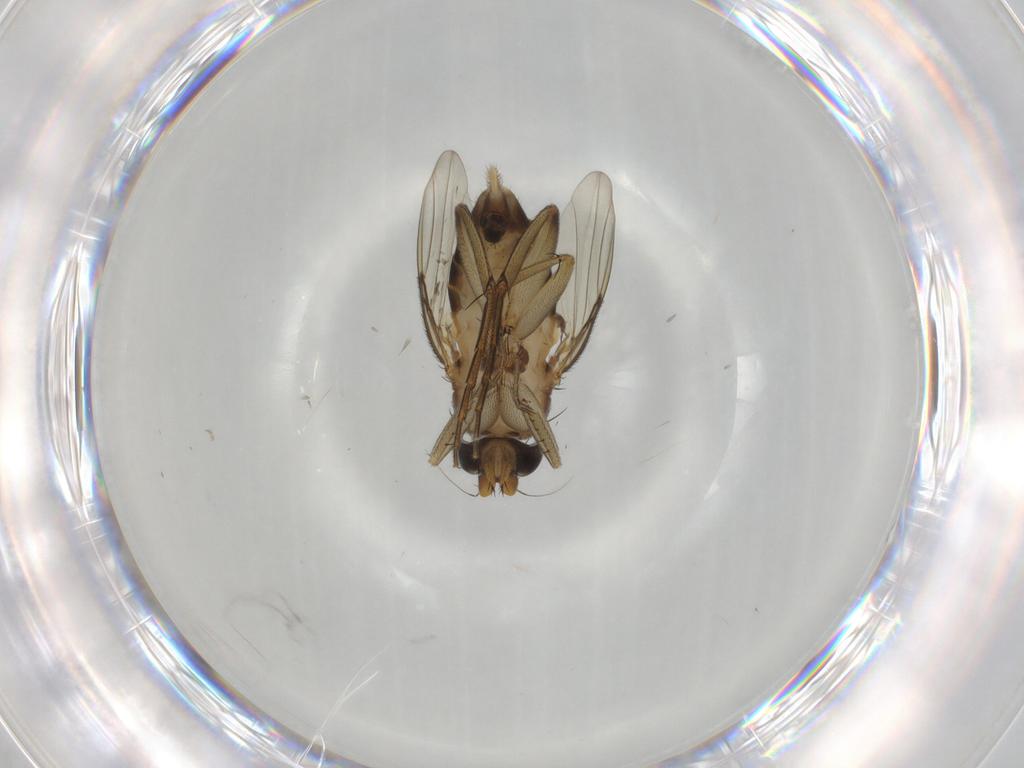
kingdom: Animalia
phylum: Arthropoda
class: Insecta
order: Diptera
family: Phoridae
